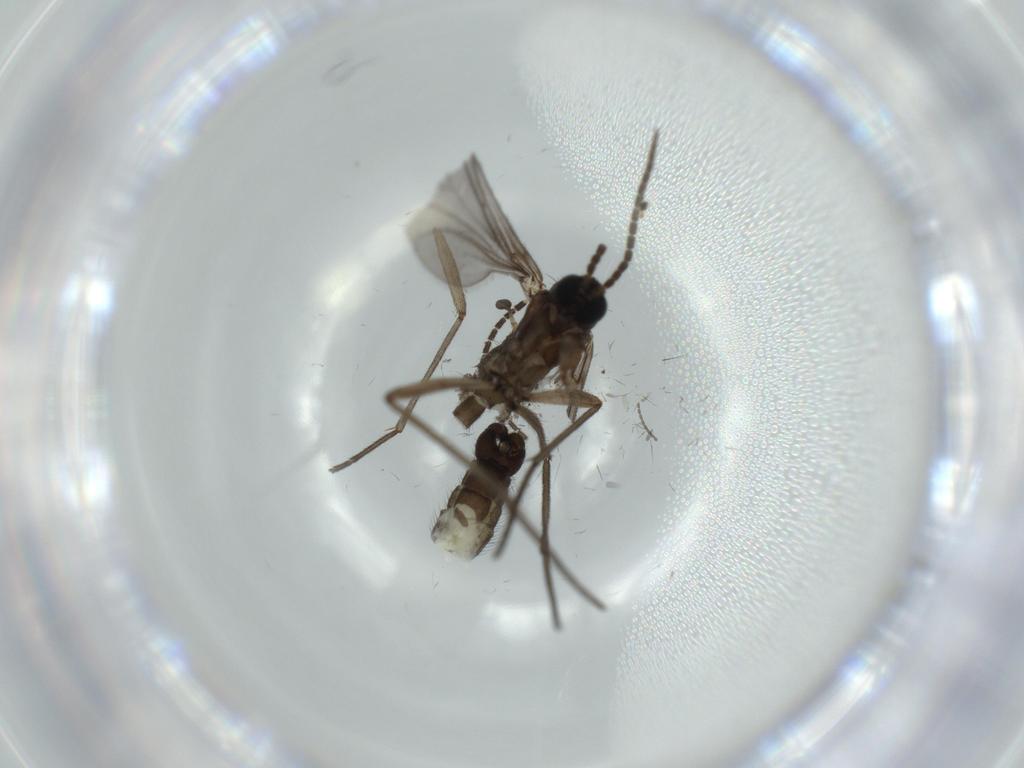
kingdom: Animalia
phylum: Arthropoda
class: Insecta
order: Diptera
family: Sciaridae
